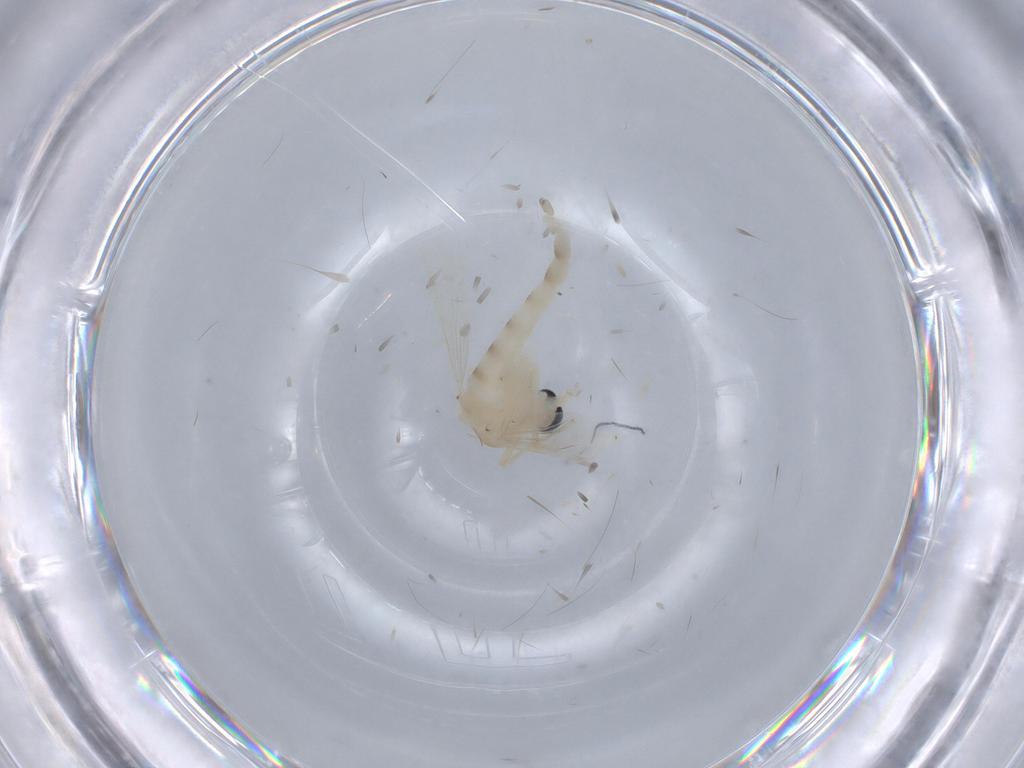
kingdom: Animalia
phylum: Arthropoda
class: Insecta
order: Diptera
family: Chironomidae
